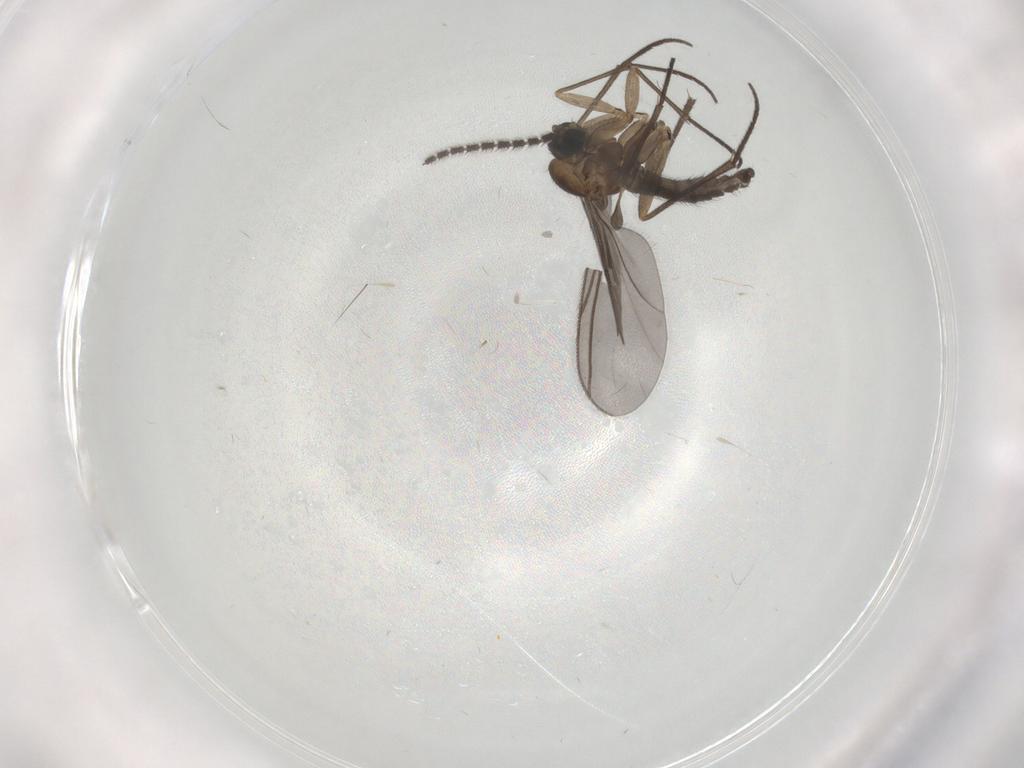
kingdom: Animalia
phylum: Arthropoda
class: Insecta
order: Diptera
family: Sciaridae
